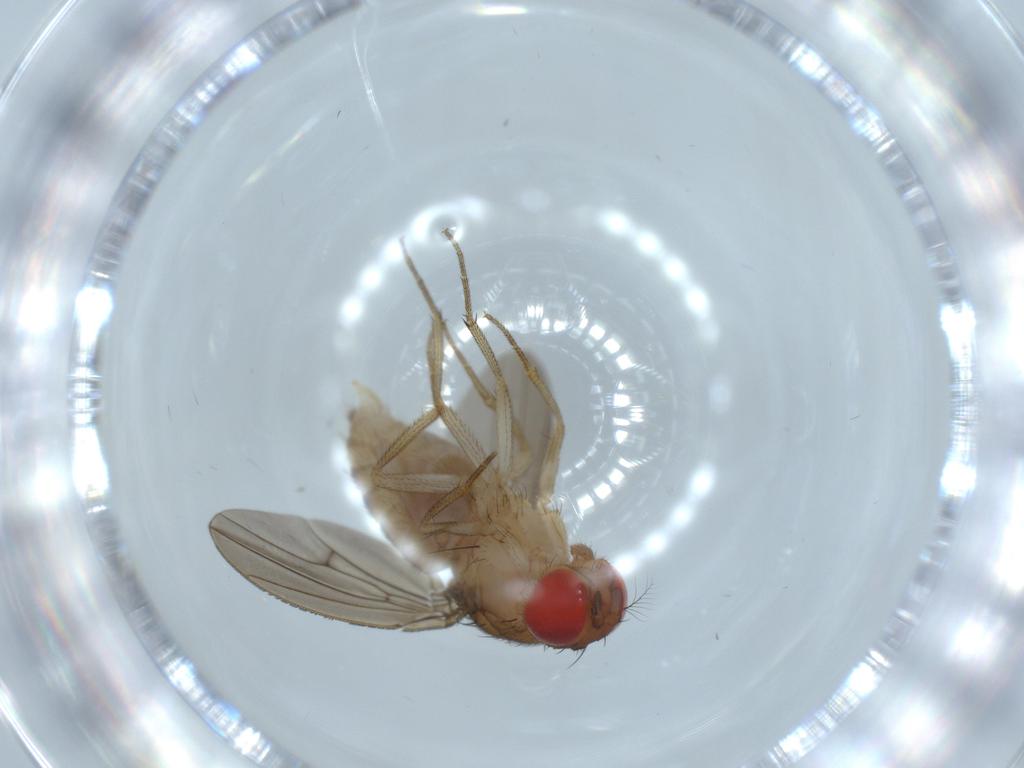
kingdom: Animalia
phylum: Arthropoda
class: Insecta
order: Diptera
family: Drosophilidae
